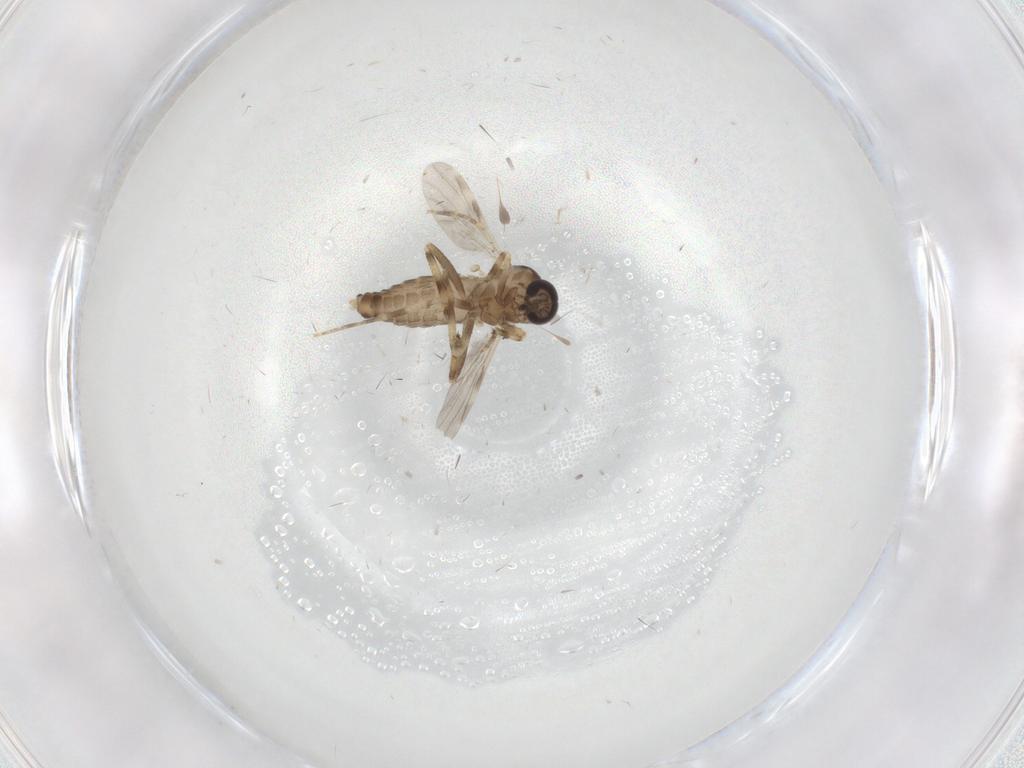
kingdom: Animalia
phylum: Arthropoda
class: Insecta
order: Diptera
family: Ceratopogonidae
